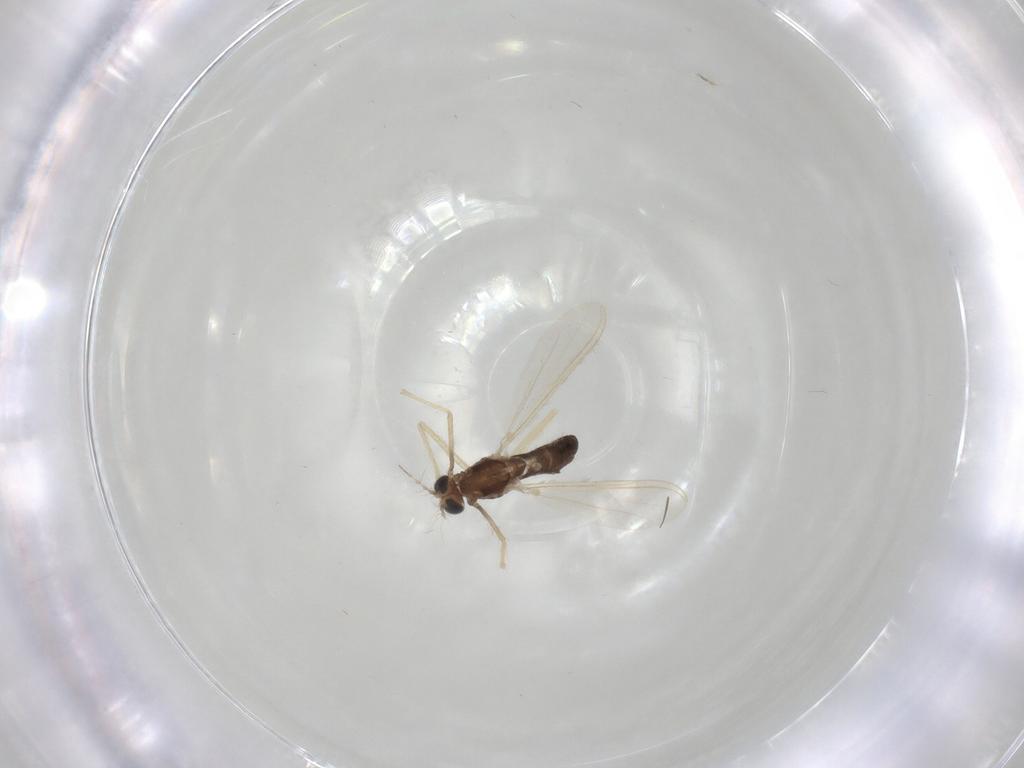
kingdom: Animalia
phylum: Arthropoda
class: Insecta
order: Diptera
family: Chironomidae
